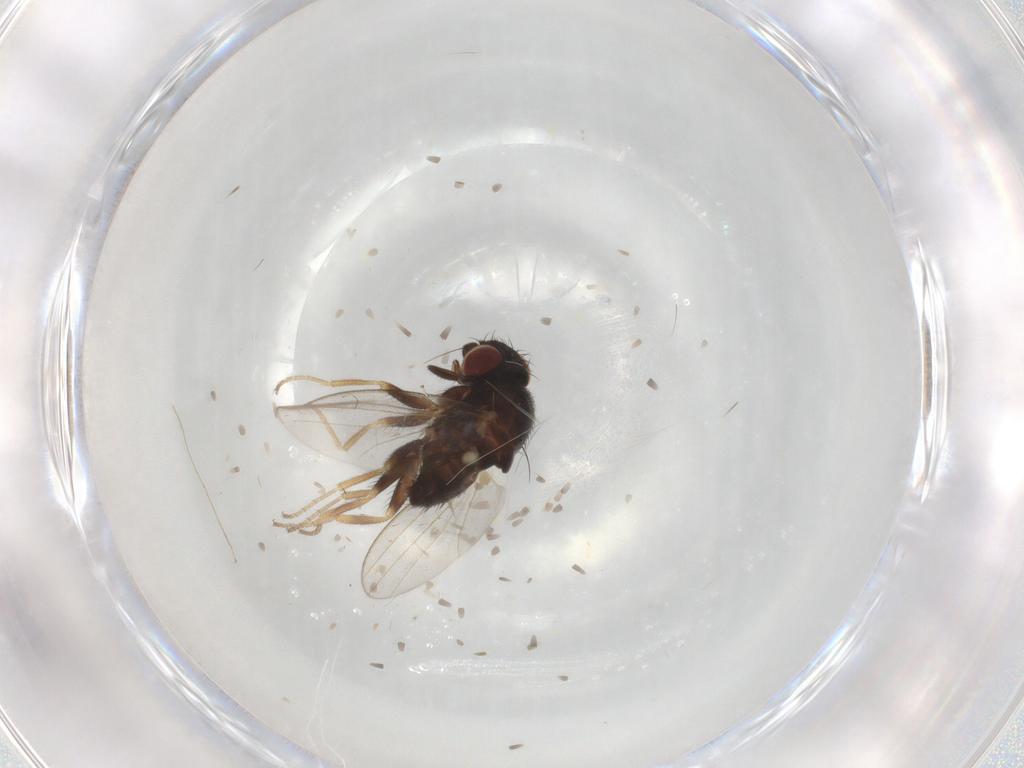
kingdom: Animalia
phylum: Arthropoda
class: Insecta
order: Diptera
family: Milichiidae
